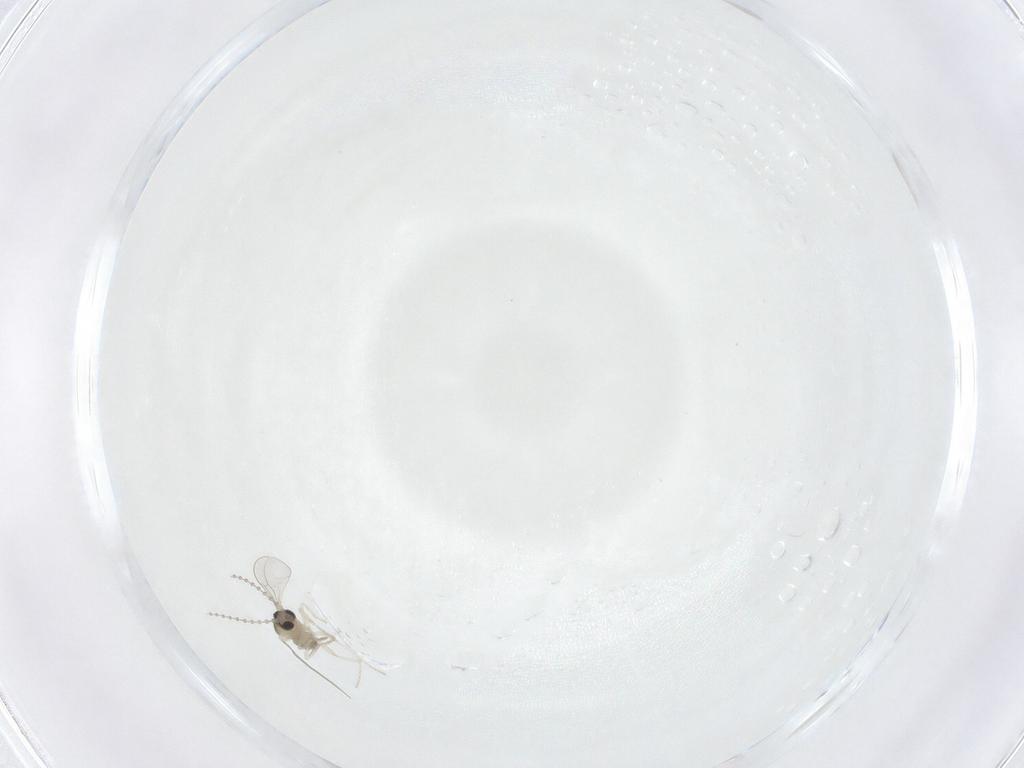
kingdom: Animalia
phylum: Arthropoda
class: Insecta
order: Diptera
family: Cecidomyiidae
